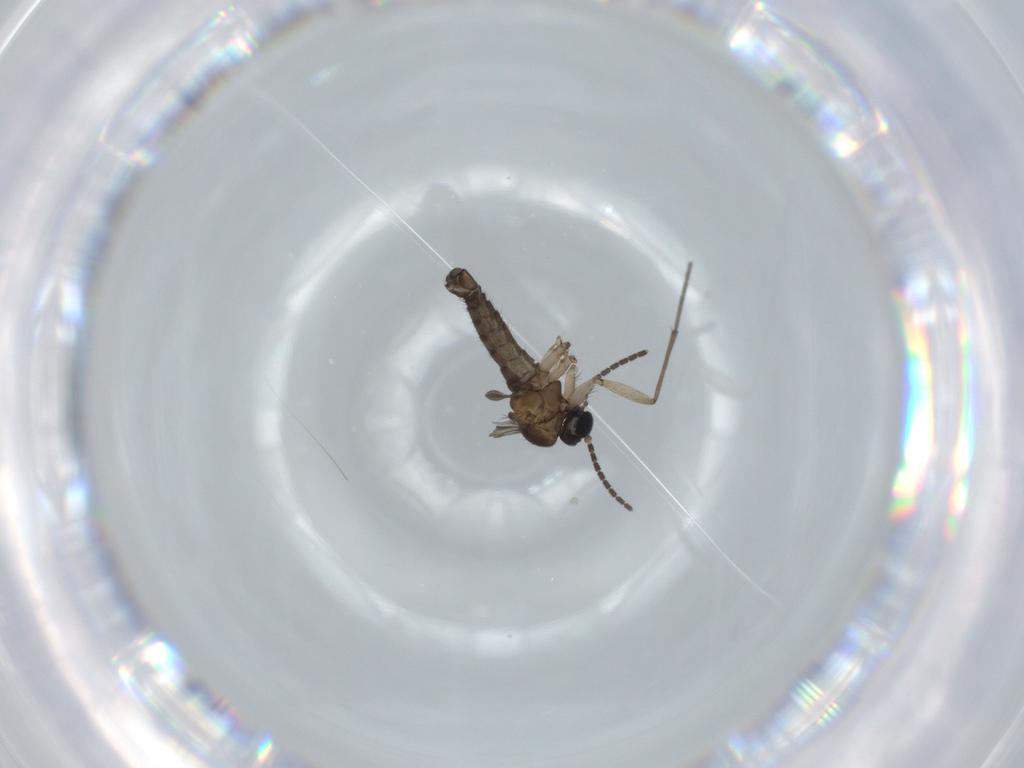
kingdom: Animalia
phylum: Arthropoda
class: Insecta
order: Diptera
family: Sciaridae
